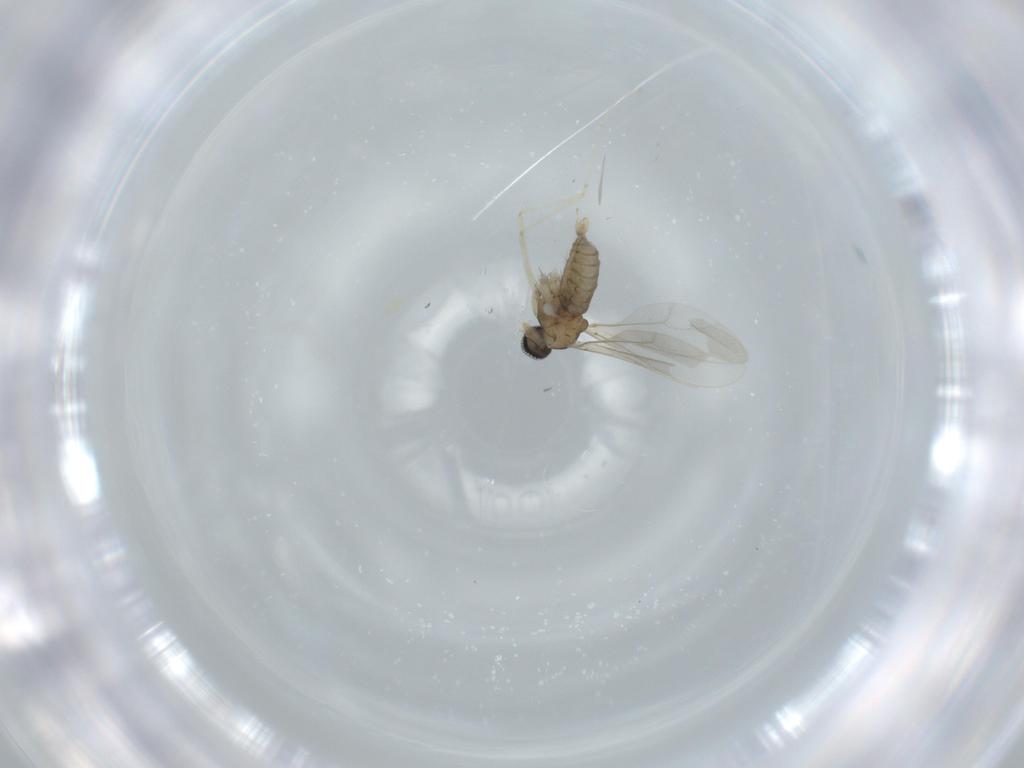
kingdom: Animalia
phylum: Arthropoda
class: Insecta
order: Diptera
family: Cecidomyiidae
